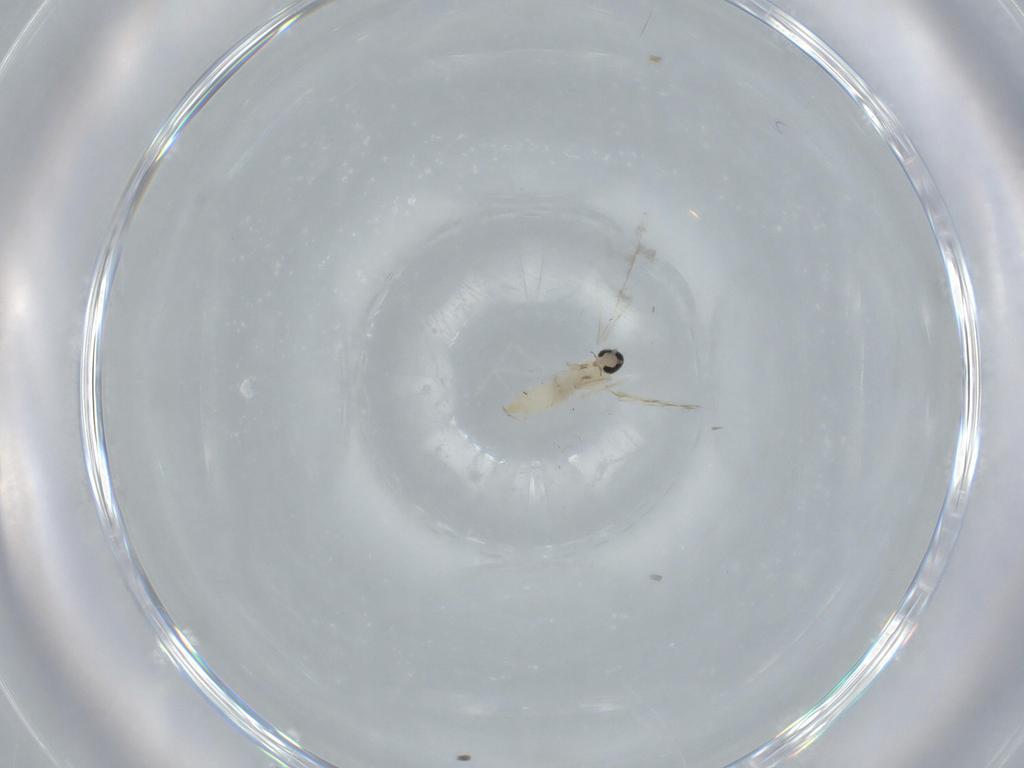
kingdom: Animalia
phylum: Arthropoda
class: Insecta
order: Diptera
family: Cecidomyiidae
